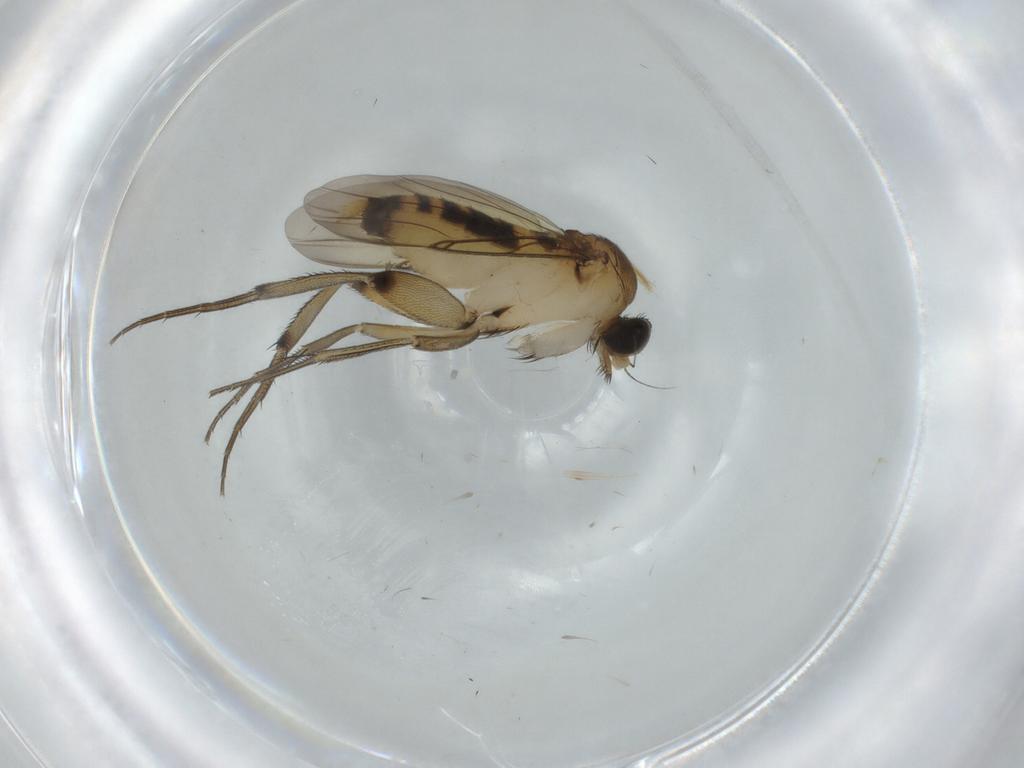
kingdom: Animalia
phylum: Arthropoda
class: Insecta
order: Diptera
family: Phoridae
